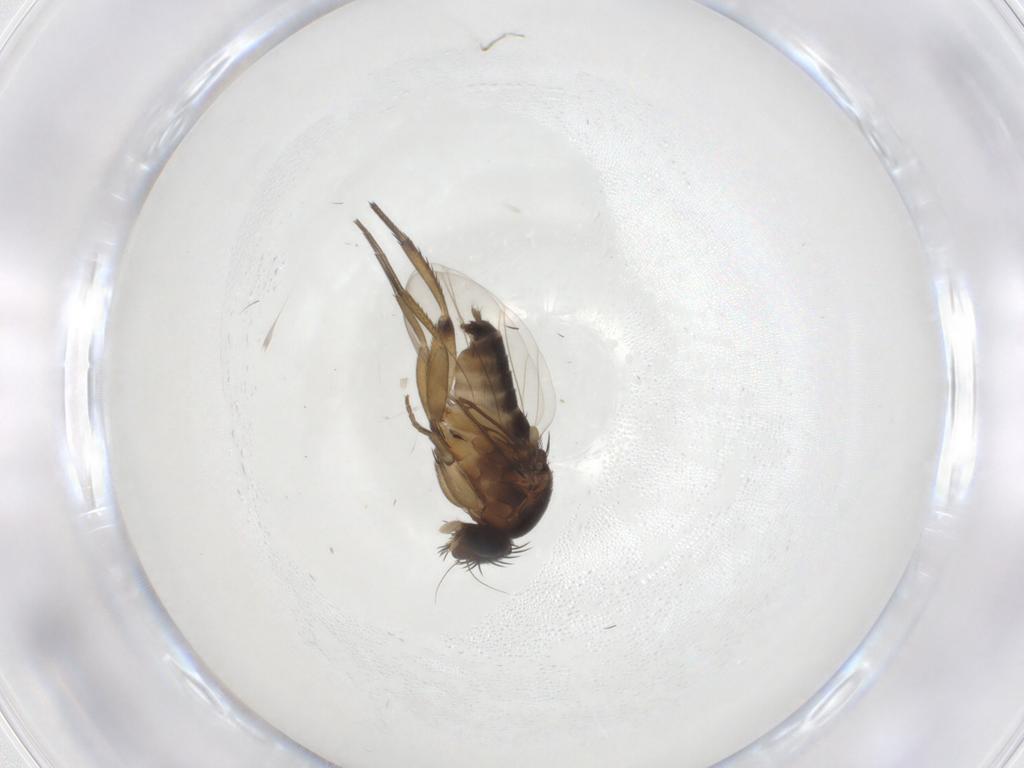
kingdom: Animalia
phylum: Arthropoda
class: Insecta
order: Diptera
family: Phoridae
